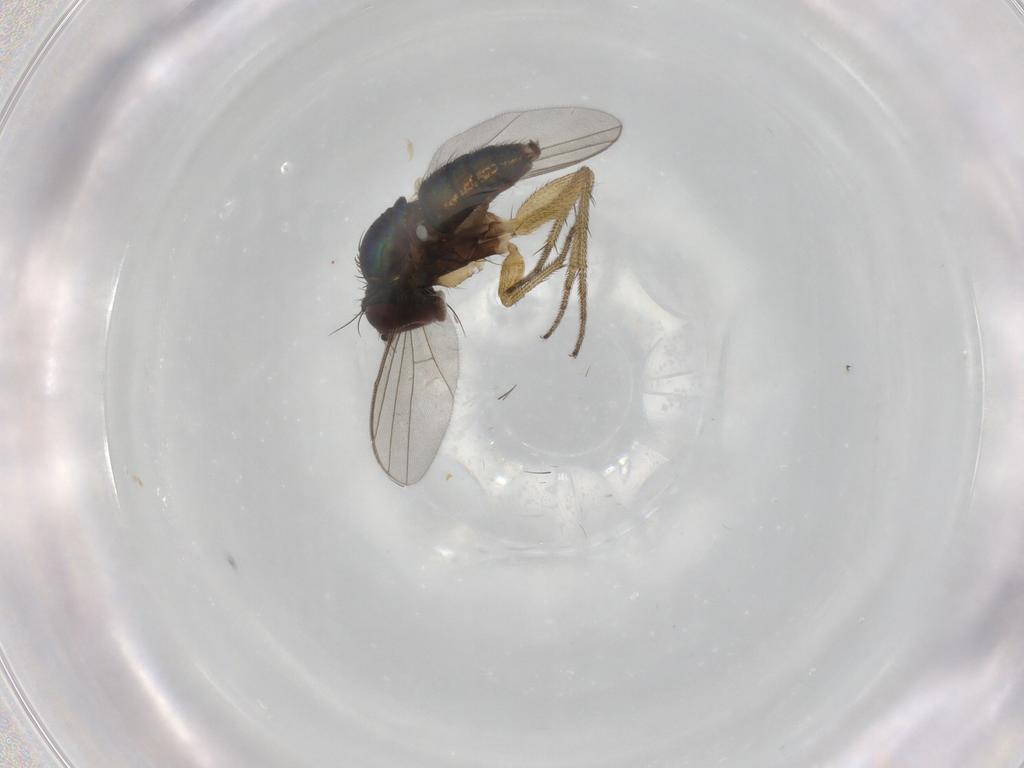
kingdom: Animalia
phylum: Arthropoda
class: Insecta
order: Diptera
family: Dolichopodidae
